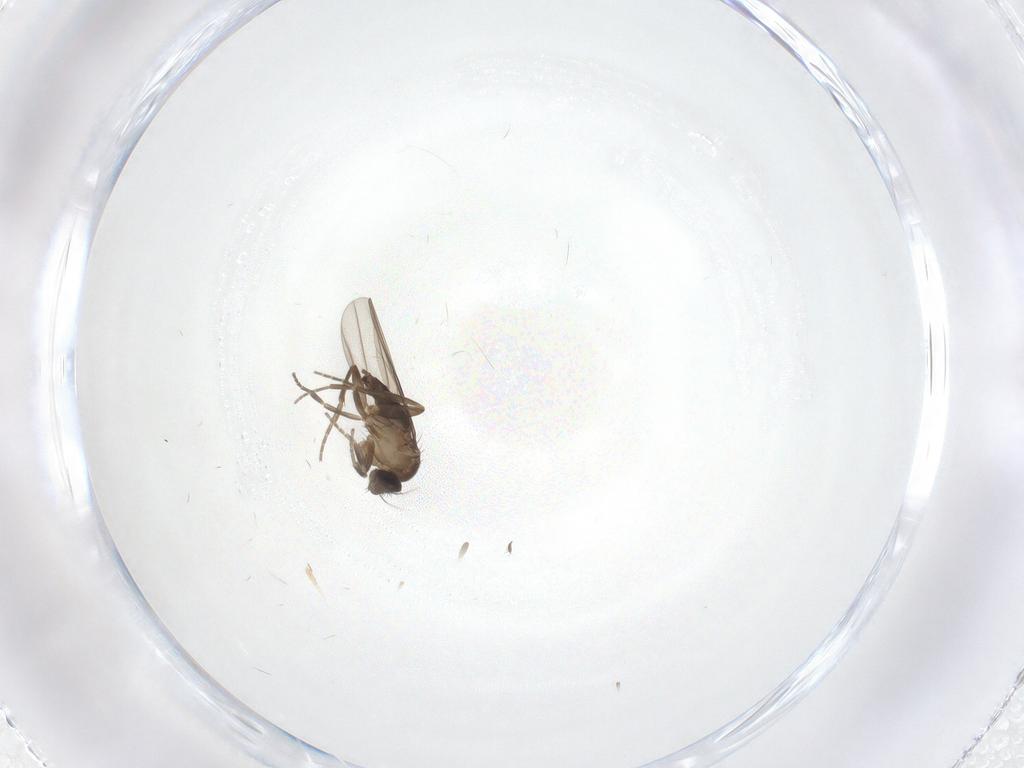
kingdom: Animalia
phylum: Arthropoda
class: Insecta
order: Diptera
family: Phoridae
